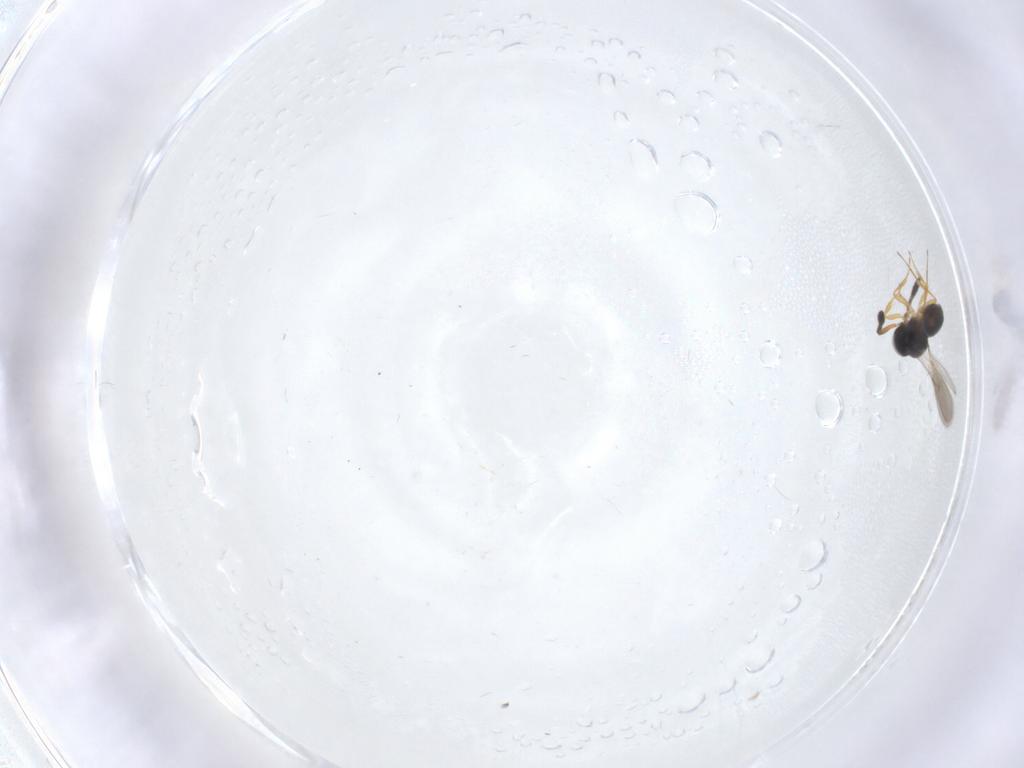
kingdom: Animalia
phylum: Arthropoda
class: Insecta
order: Hymenoptera
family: Scelionidae
